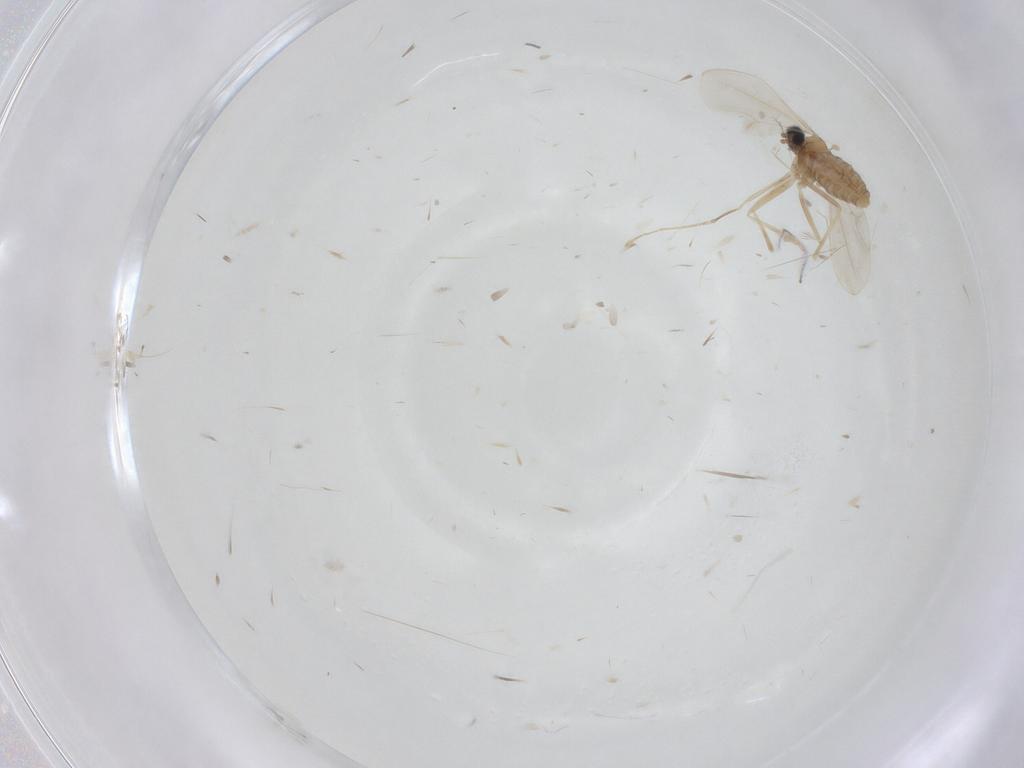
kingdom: Animalia
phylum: Arthropoda
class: Insecta
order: Diptera
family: Cecidomyiidae
